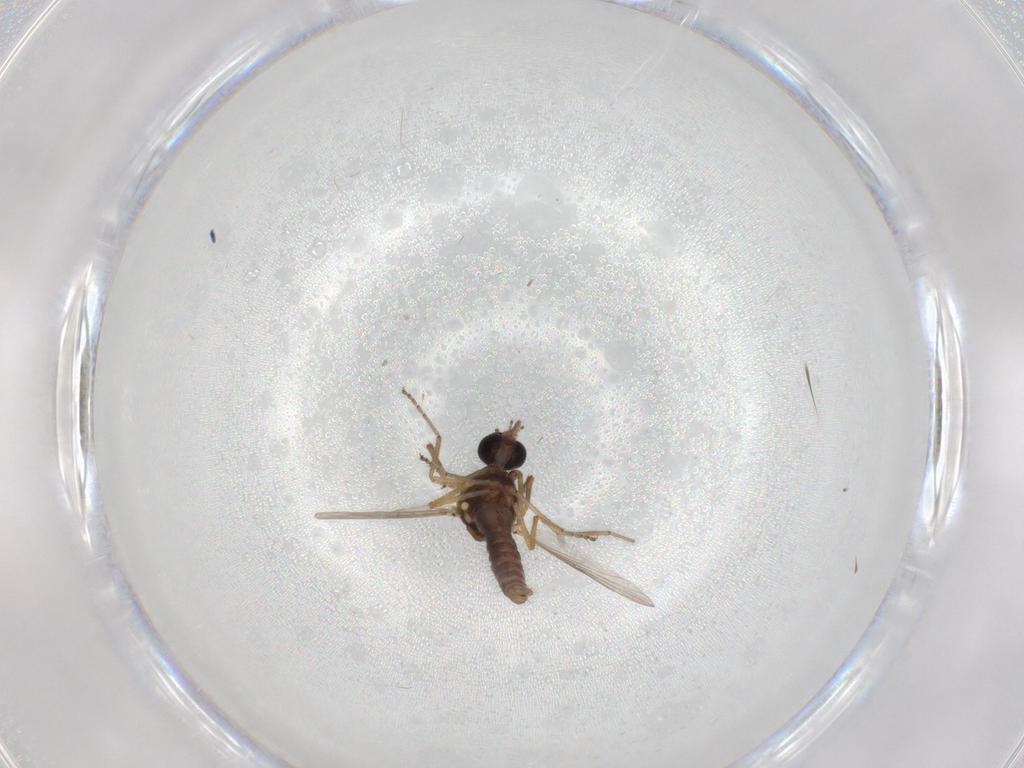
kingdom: Animalia
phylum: Arthropoda
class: Insecta
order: Diptera
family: Ceratopogonidae
